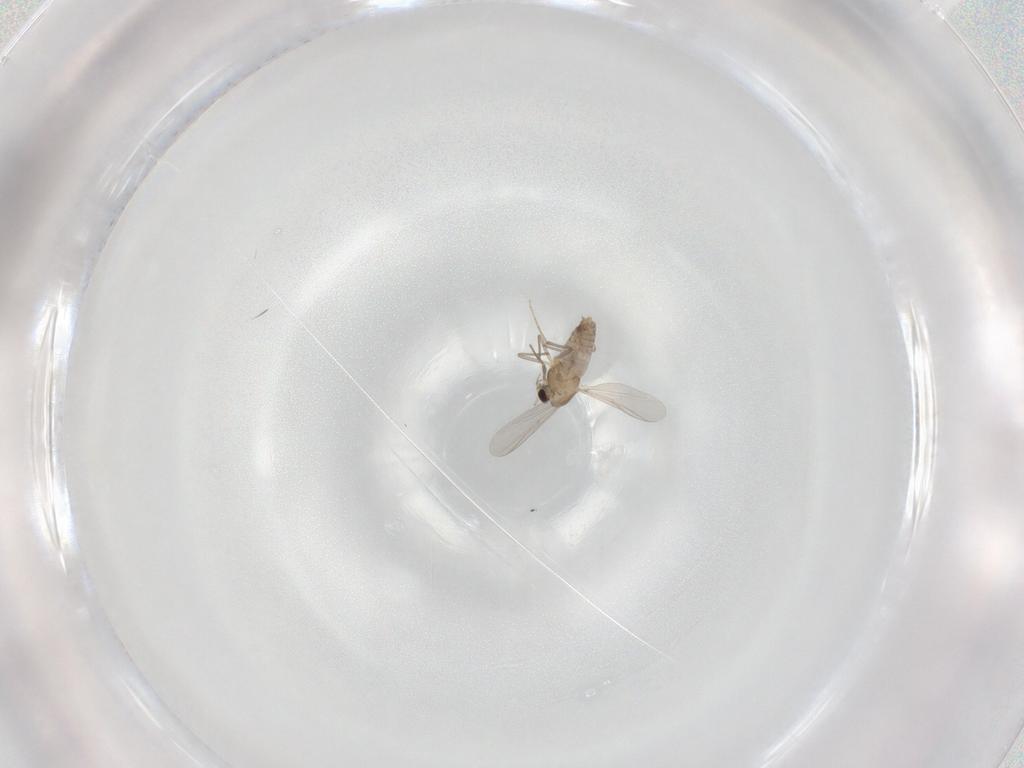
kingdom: Animalia
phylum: Arthropoda
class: Insecta
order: Diptera
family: Chironomidae
